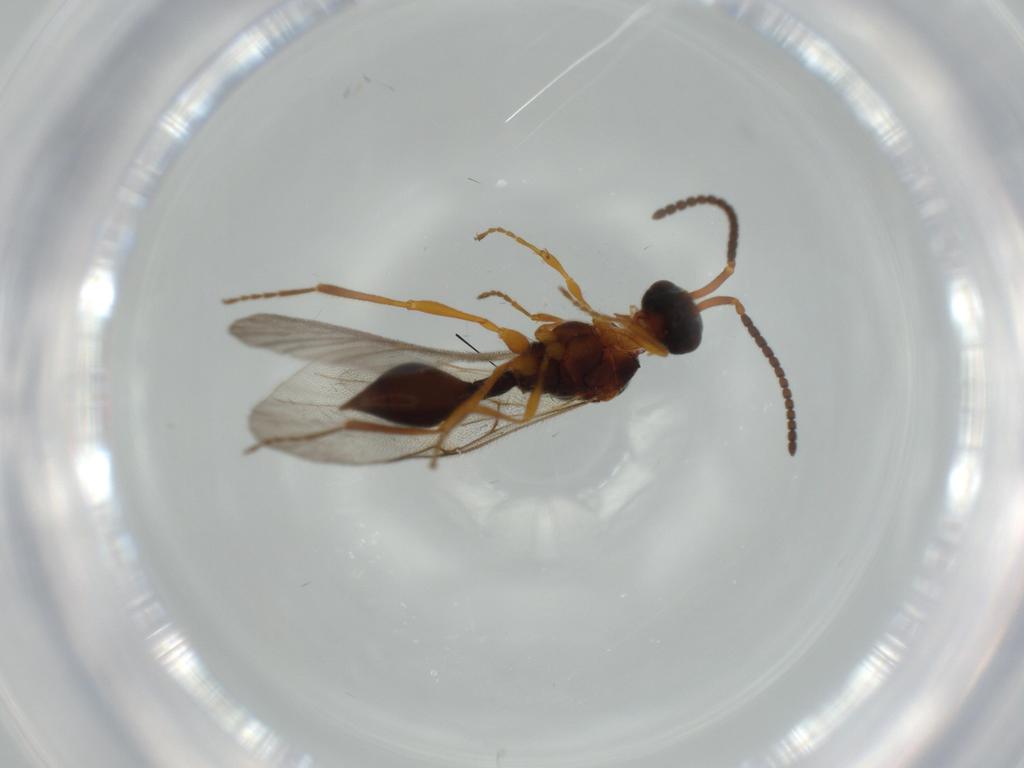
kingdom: Animalia
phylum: Arthropoda
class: Insecta
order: Hymenoptera
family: Diapriidae
